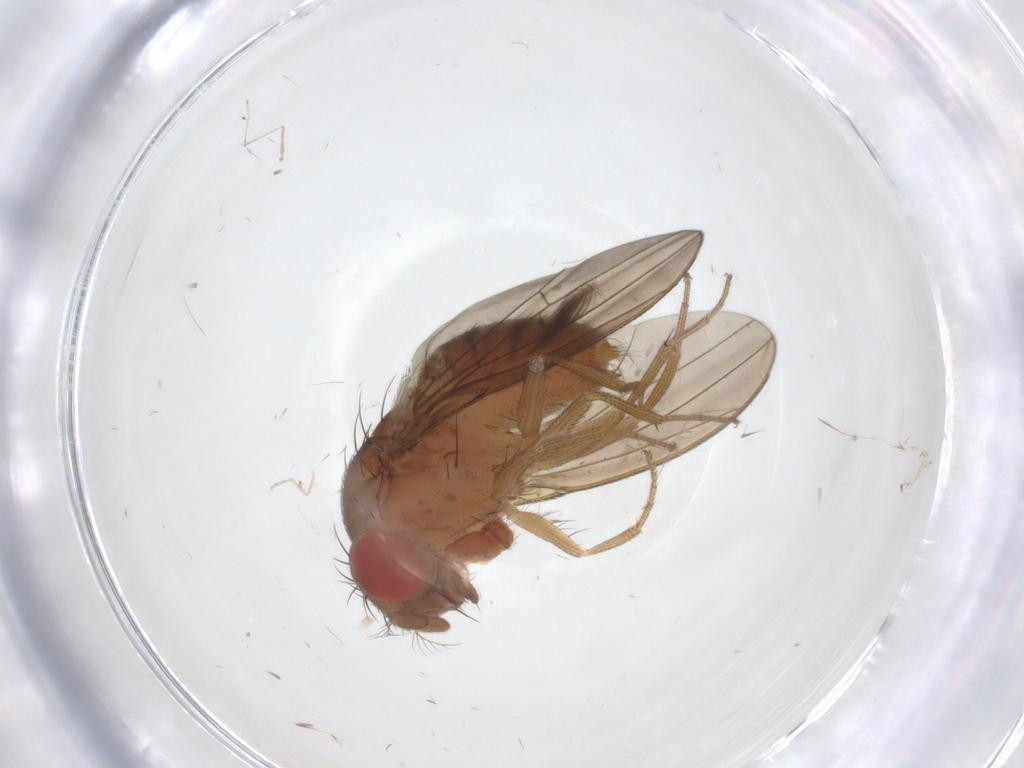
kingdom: Animalia
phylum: Arthropoda
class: Insecta
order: Diptera
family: Drosophilidae
